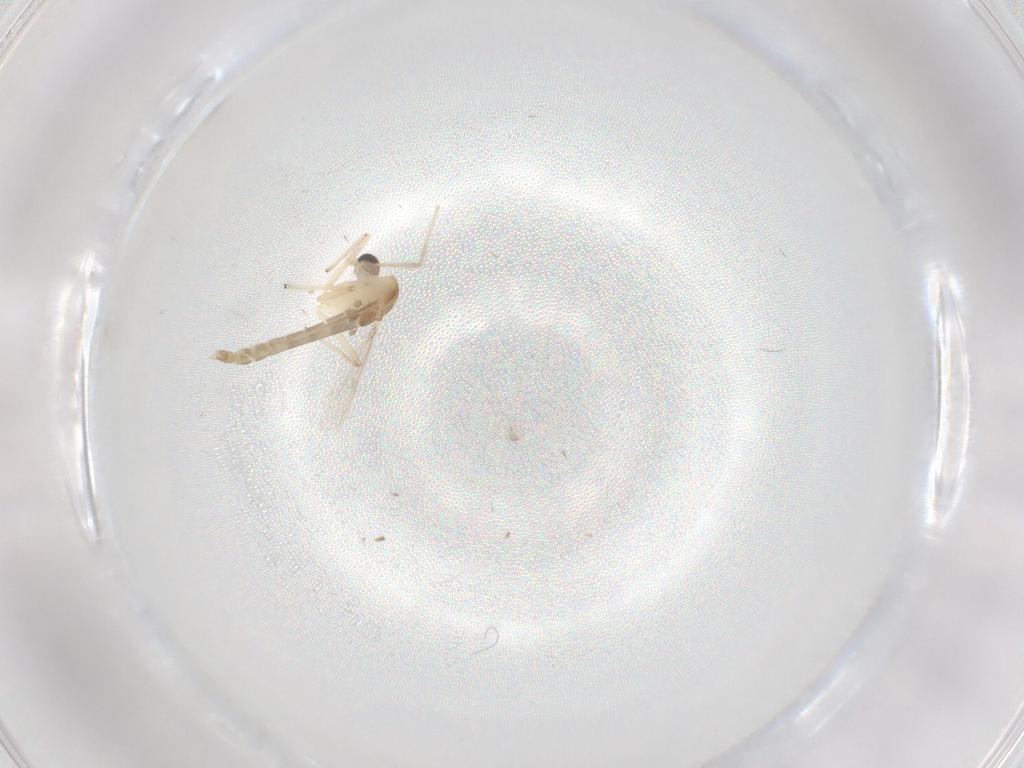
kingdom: Animalia
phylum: Arthropoda
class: Insecta
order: Diptera
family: Chironomidae
